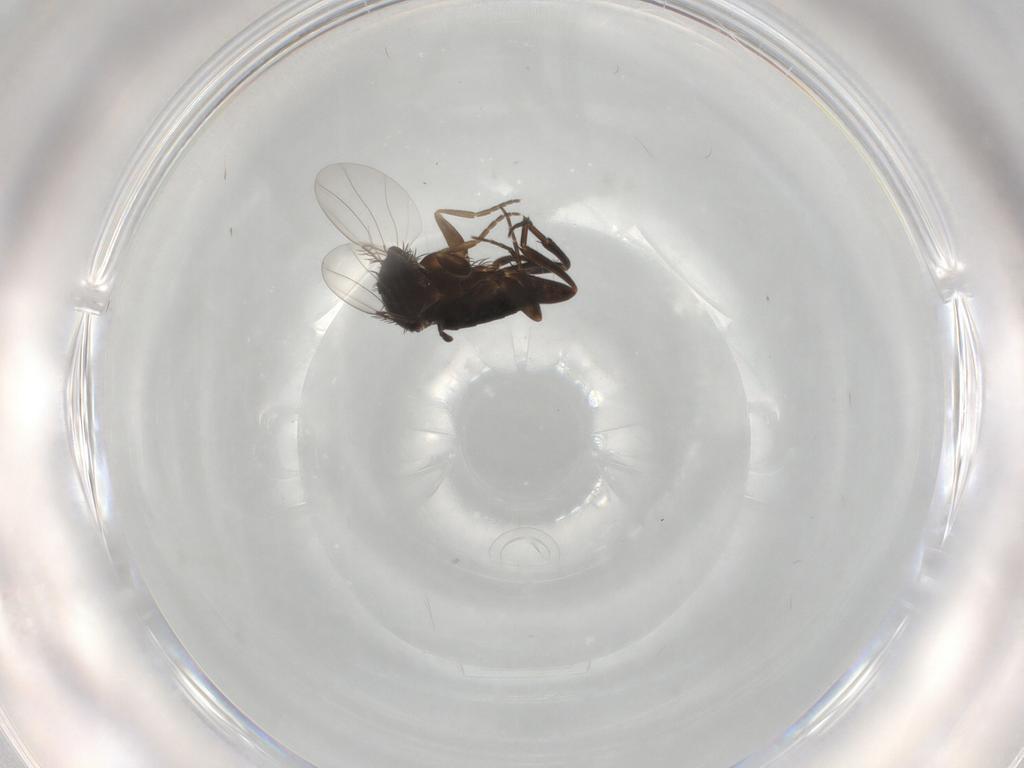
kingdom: Animalia
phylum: Arthropoda
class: Insecta
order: Diptera
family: Phoridae
